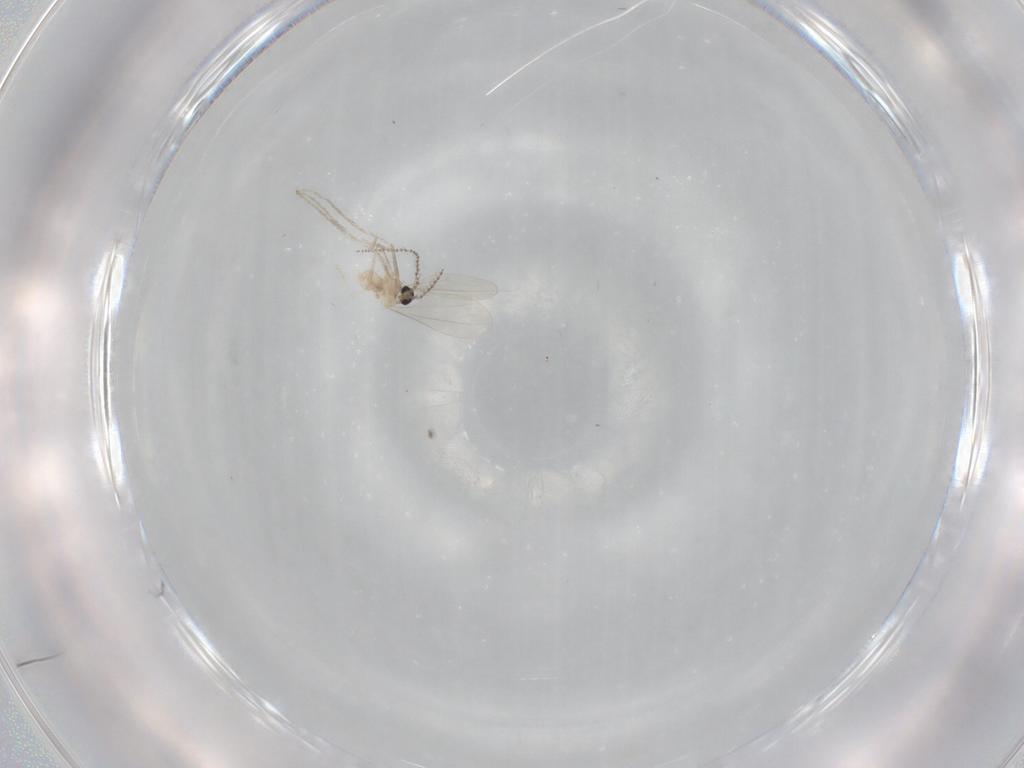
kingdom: Animalia
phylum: Arthropoda
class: Insecta
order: Diptera
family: Cecidomyiidae
